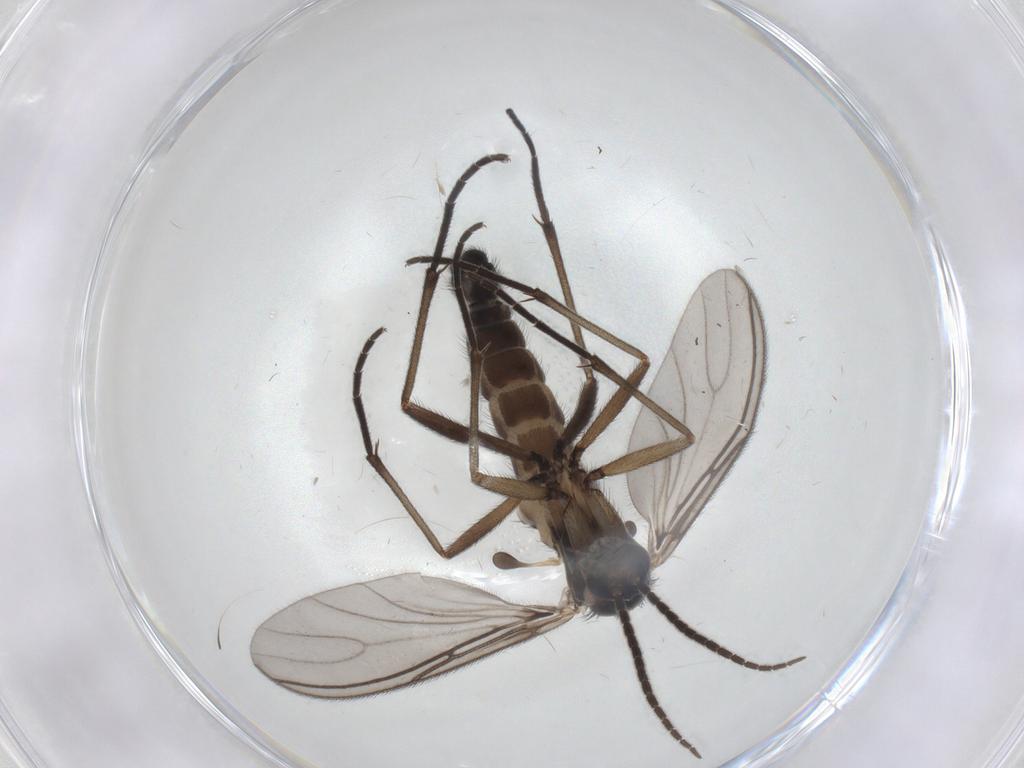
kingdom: Animalia
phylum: Arthropoda
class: Insecta
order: Diptera
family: Sciaridae
